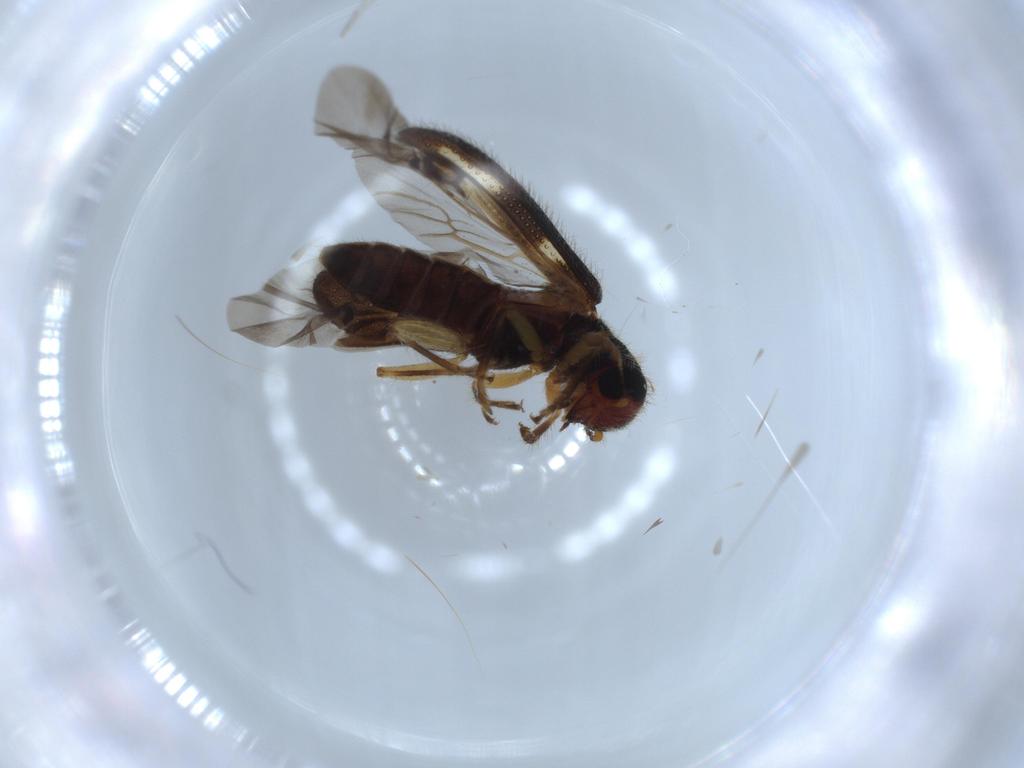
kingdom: Animalia
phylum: Arthropoda
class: Insecta
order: Coleoptera
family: Cleridae
